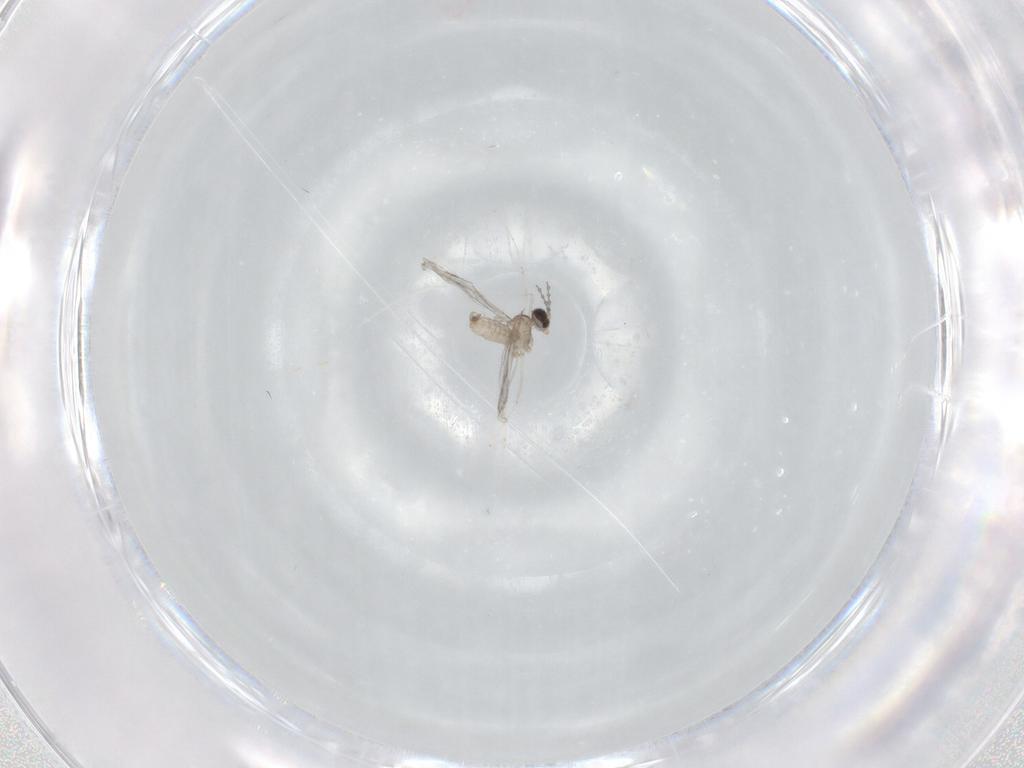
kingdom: Animalia
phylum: Arthropoda
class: Insecta
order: Diptera
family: Cecidomyiidae
